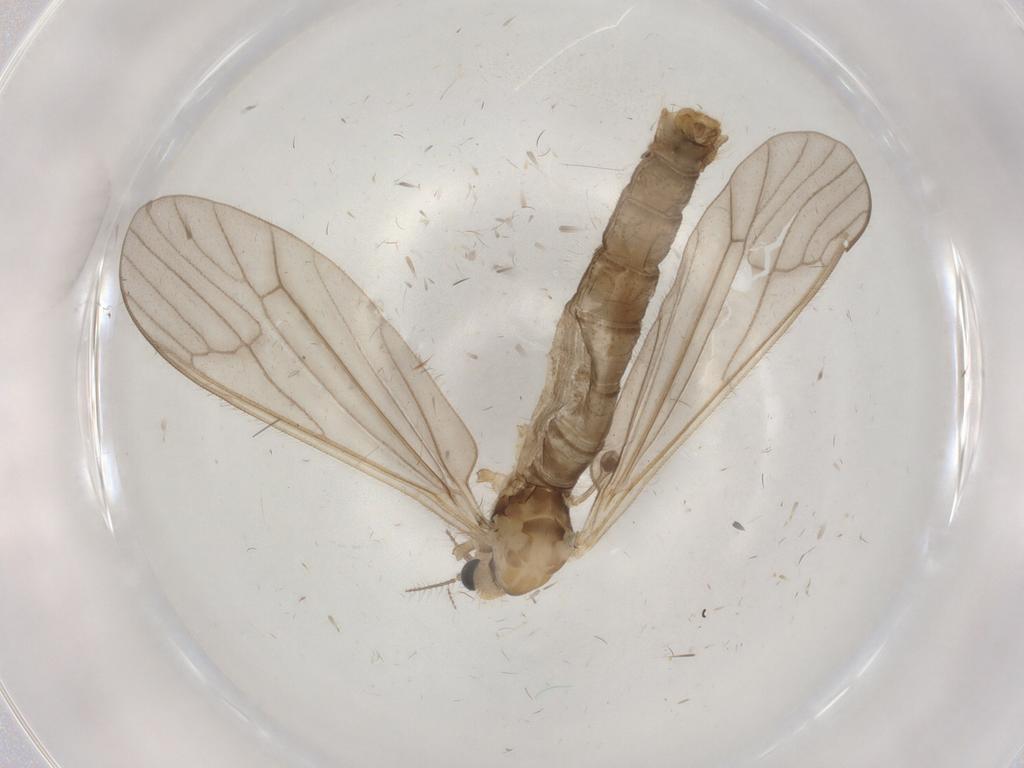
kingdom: Animalia
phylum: Arthropoda
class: Insecta
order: Diptera
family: Limoniidae
